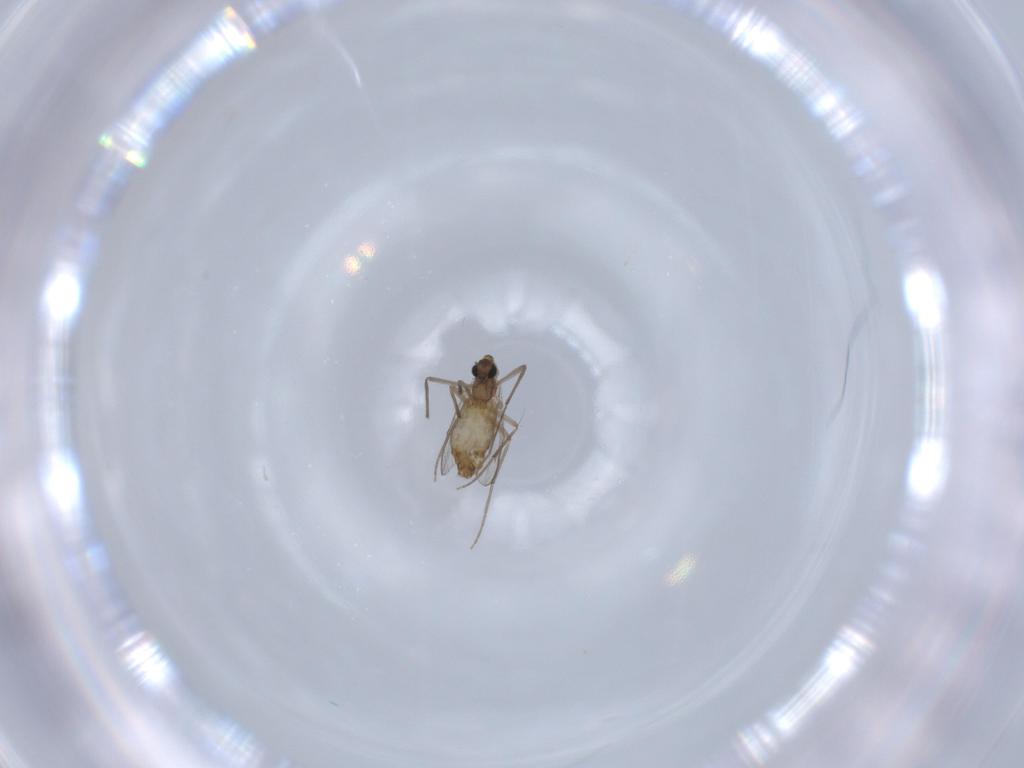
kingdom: Animalia
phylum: Arthropoda
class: Insecta
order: Diptera
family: Chironomidae
